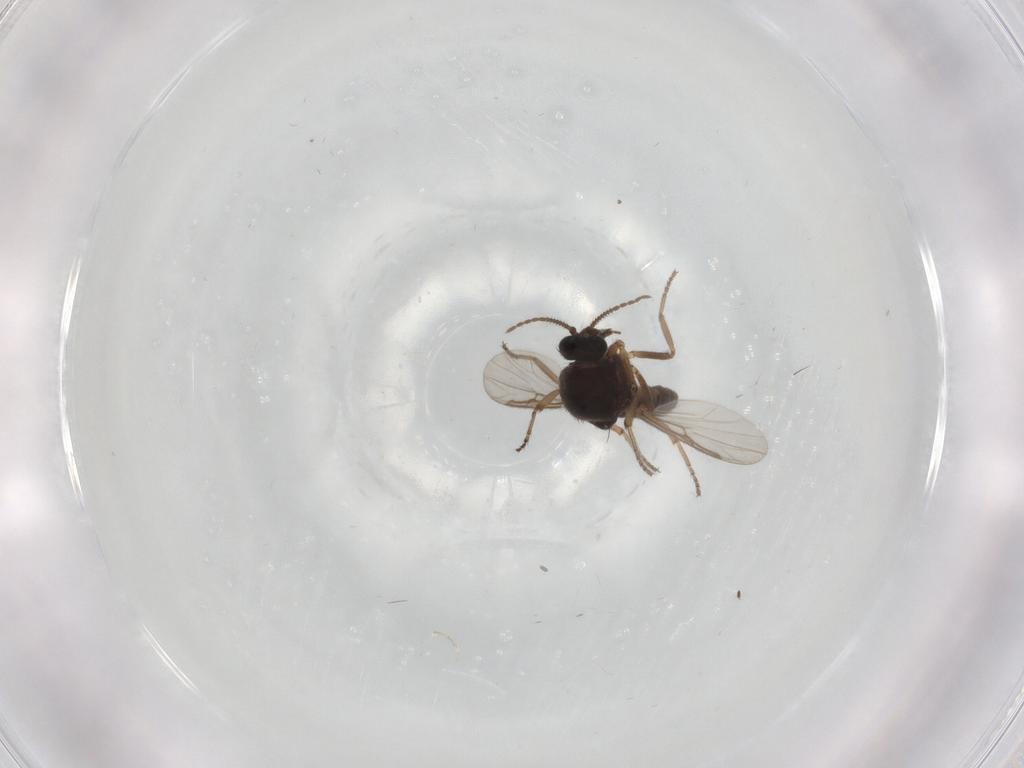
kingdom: Animalia
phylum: Arthropoda
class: Insecta
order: Diptera
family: Ceratopogonidae
